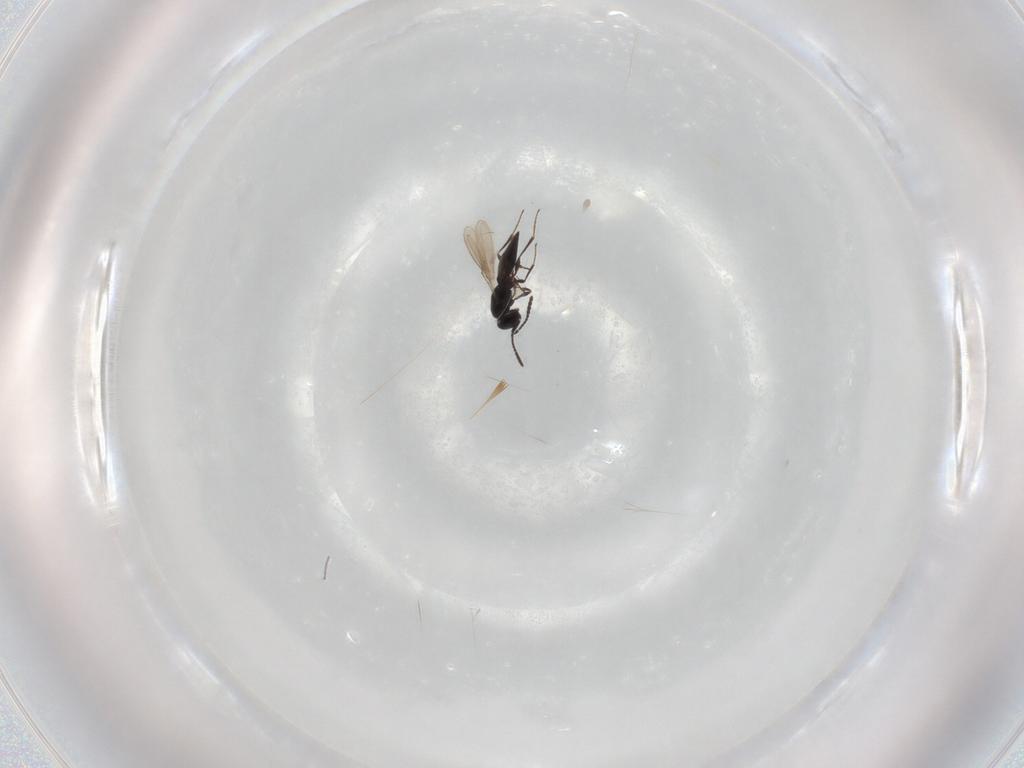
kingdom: Animalia
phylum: Arthropoda
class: Insecta
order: Hymenoptera
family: Scelionidae
